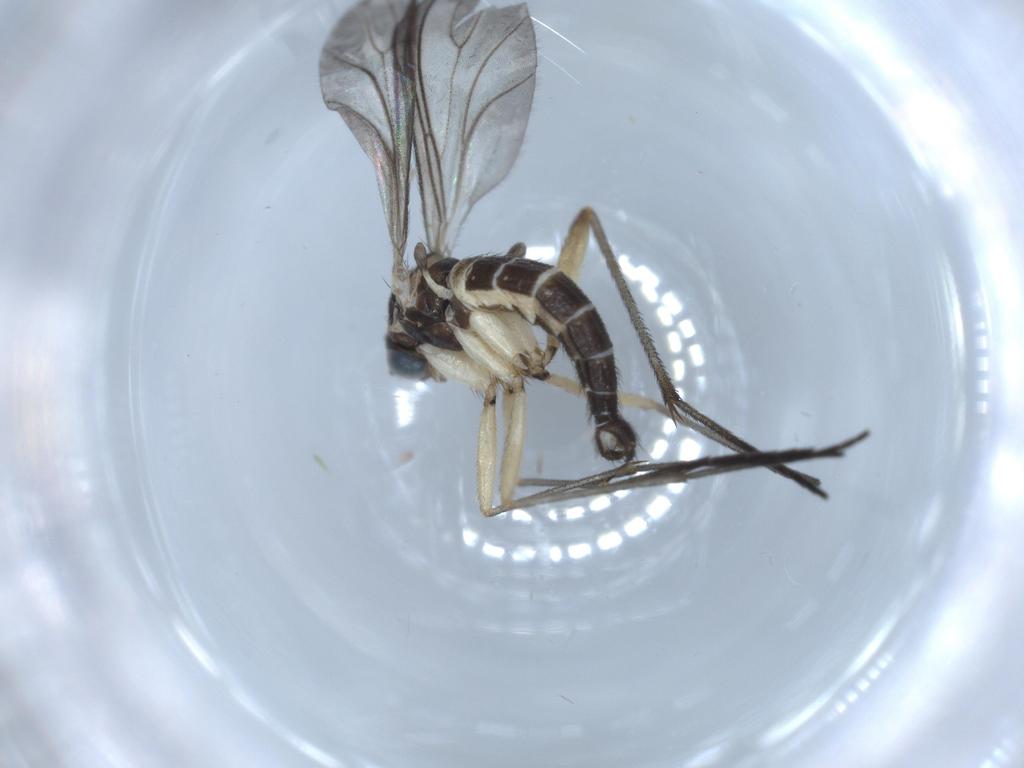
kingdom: Animalia
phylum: Arthropoda
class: Insecta
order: Diptera
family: Sciaridae
